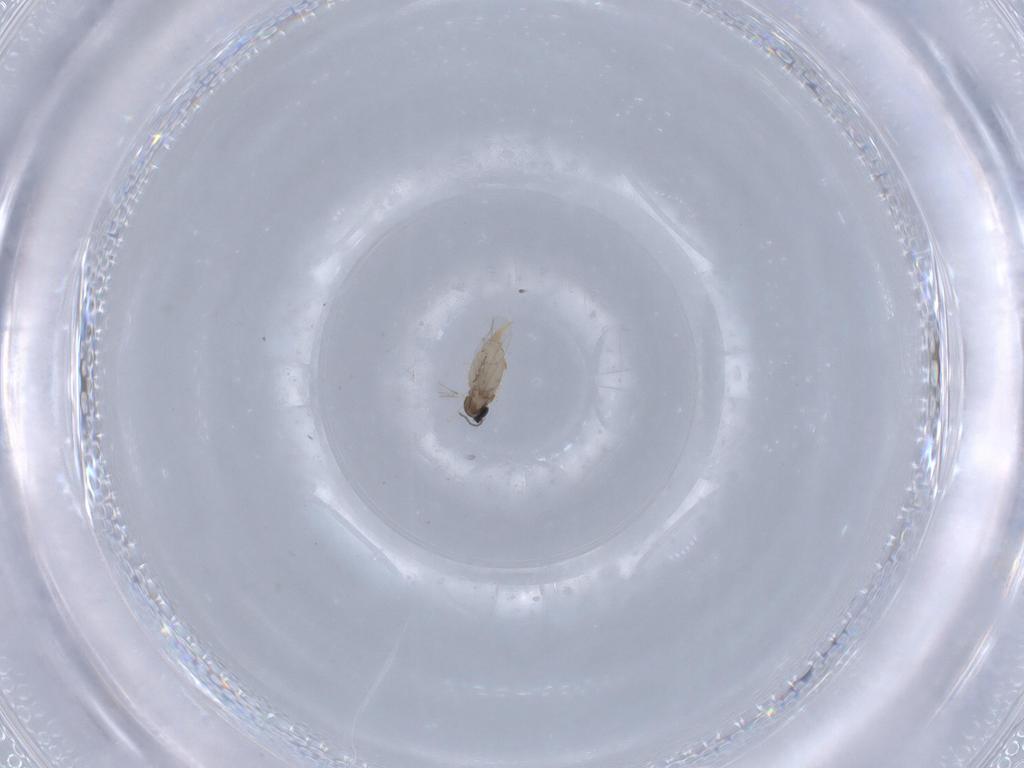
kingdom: Animalia
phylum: Arthropoda
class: Insecta
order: Diptera
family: Cecidomyiidae
